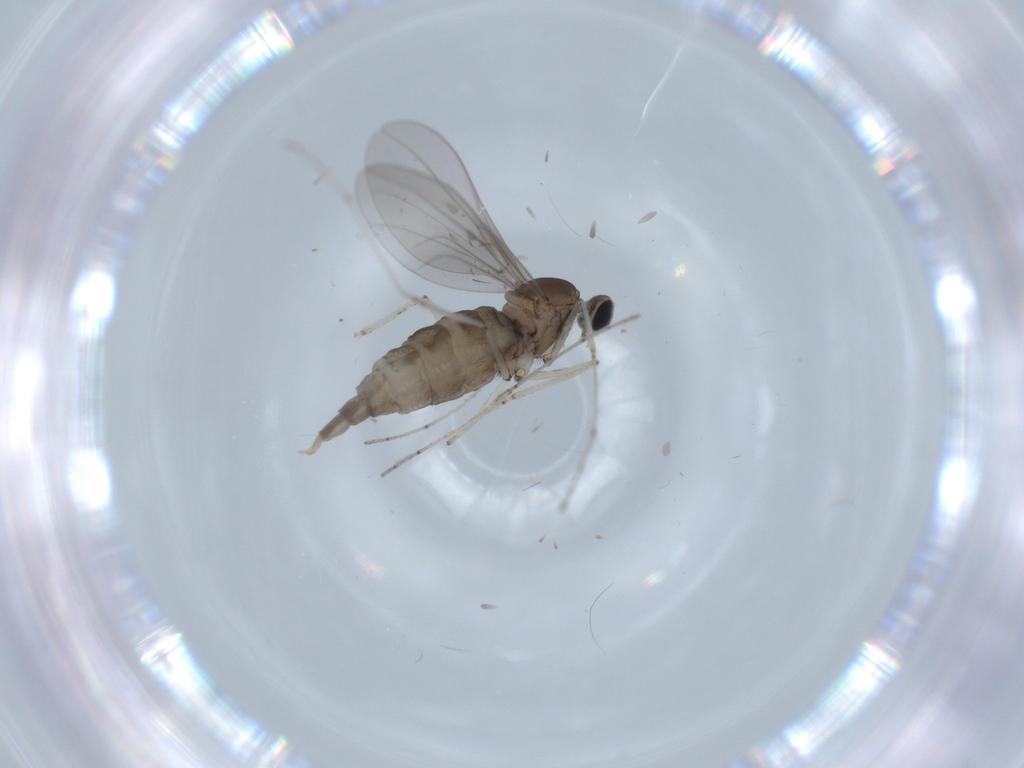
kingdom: Animalia
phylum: Arthropoda
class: Insecta
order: Diptera
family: Cecidomyiidae
